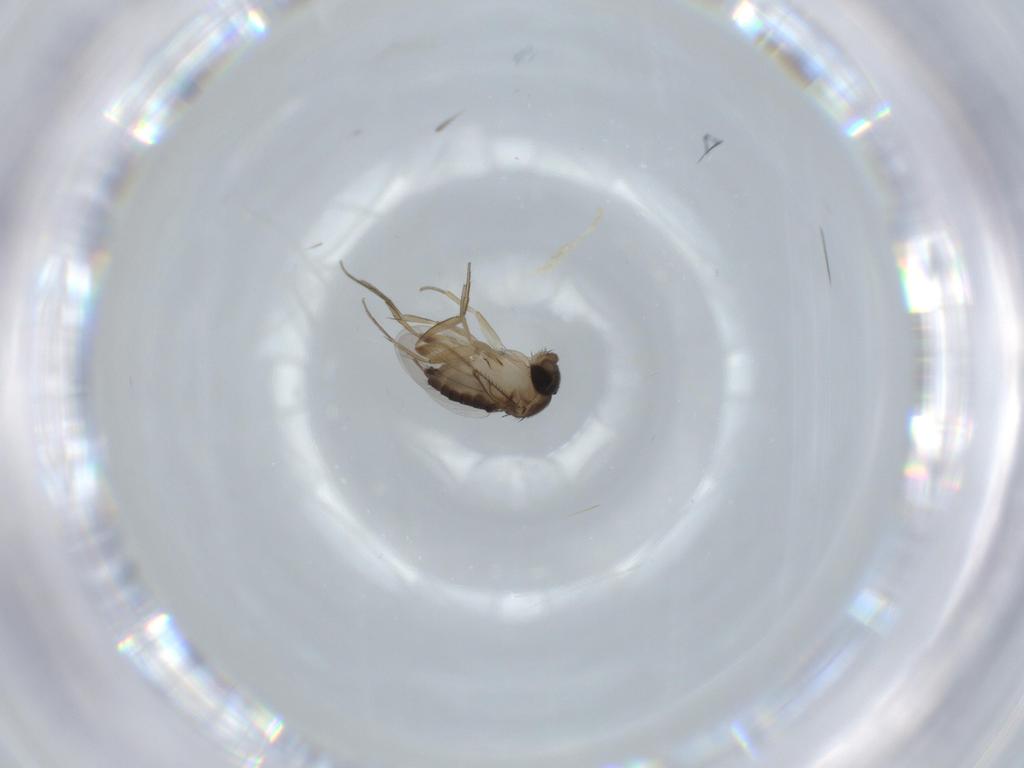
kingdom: Animalia
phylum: Arthropoda
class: Insecta
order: Diptera
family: Phoridae
